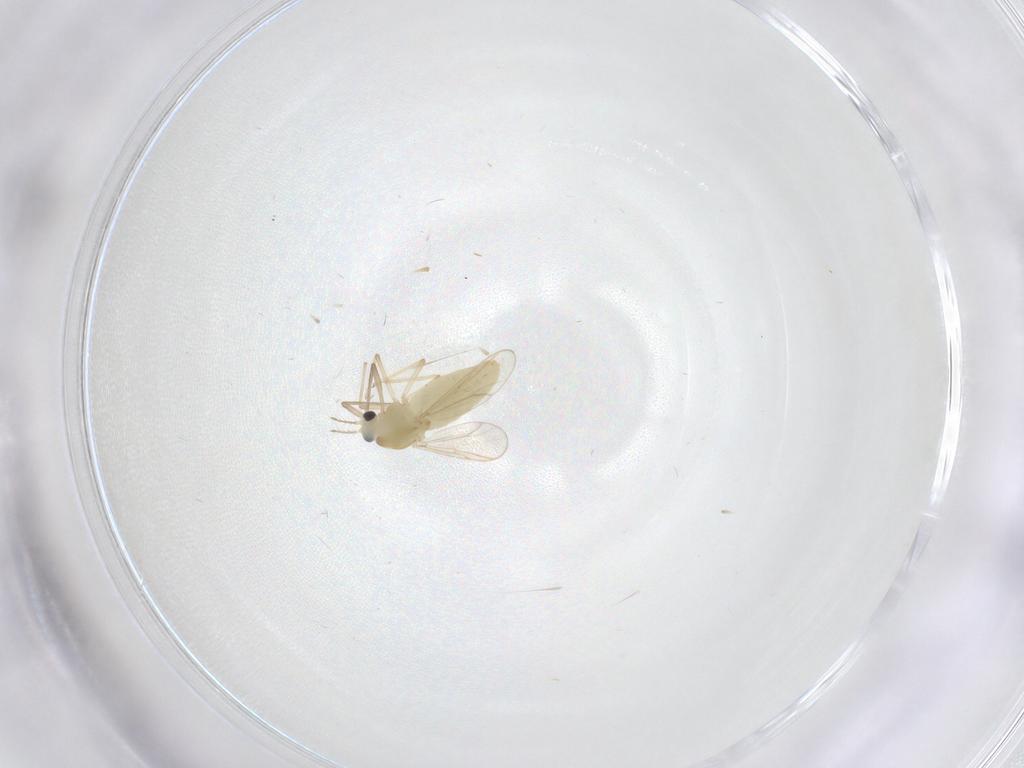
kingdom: Animalia
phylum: Arthropoda
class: Insecta
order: Diptera
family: Chironomidae
